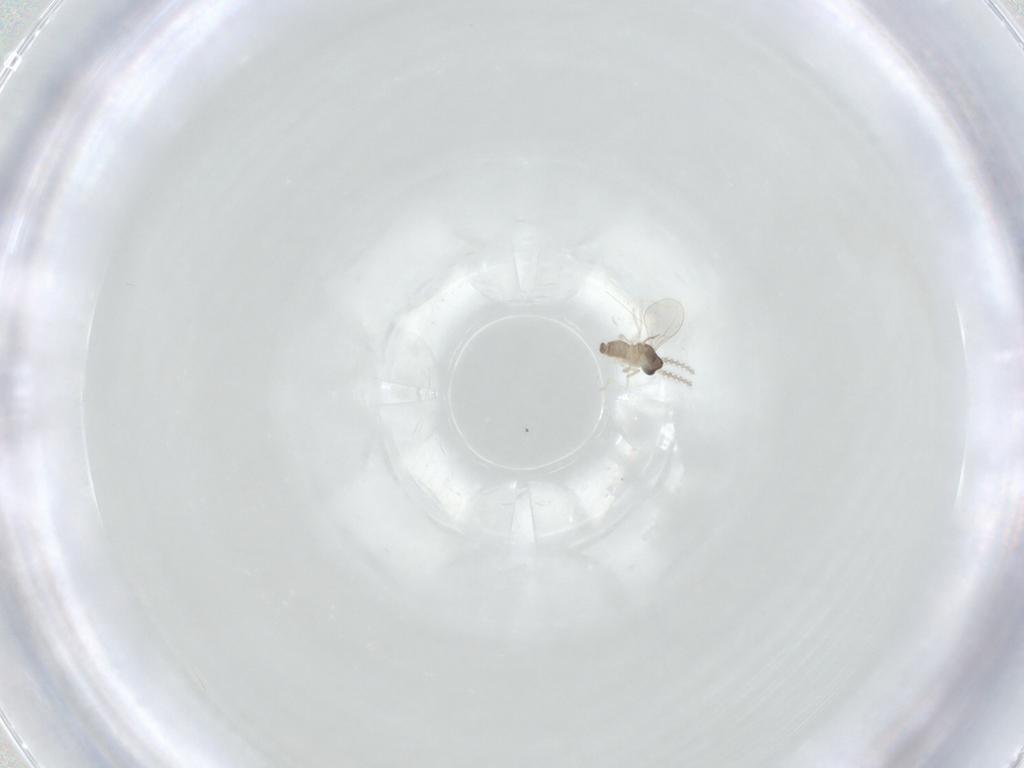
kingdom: Animalia
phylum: Arthropoda
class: Insecta
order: Diptera
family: Cecidomyiidae
